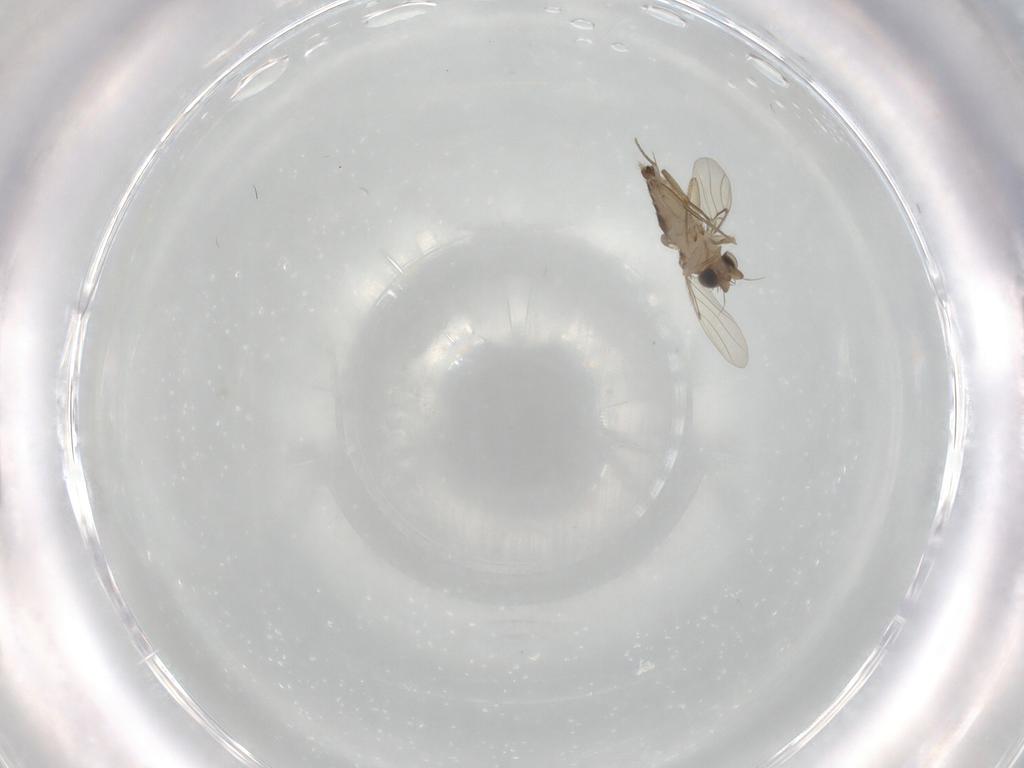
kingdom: Animalia
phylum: Arthropoda
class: Insecta
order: Diptera
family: Phoridae
